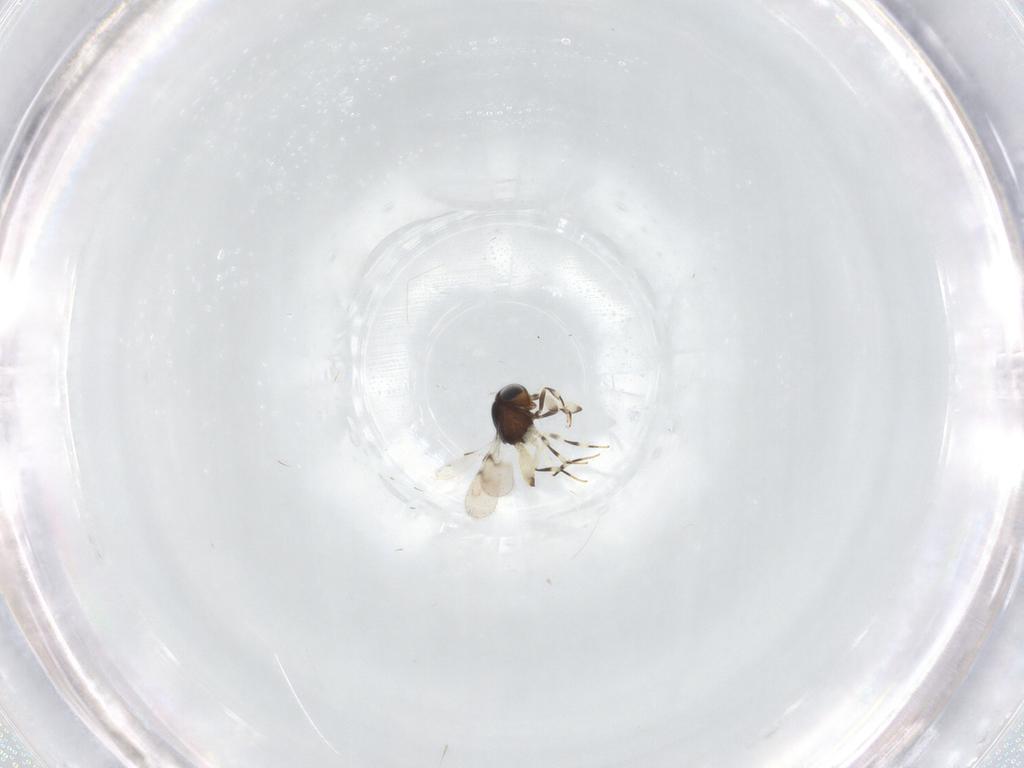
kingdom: Animalia
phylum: Arthropoda
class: Insecta
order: Hymenoptera
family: Scelionidae
